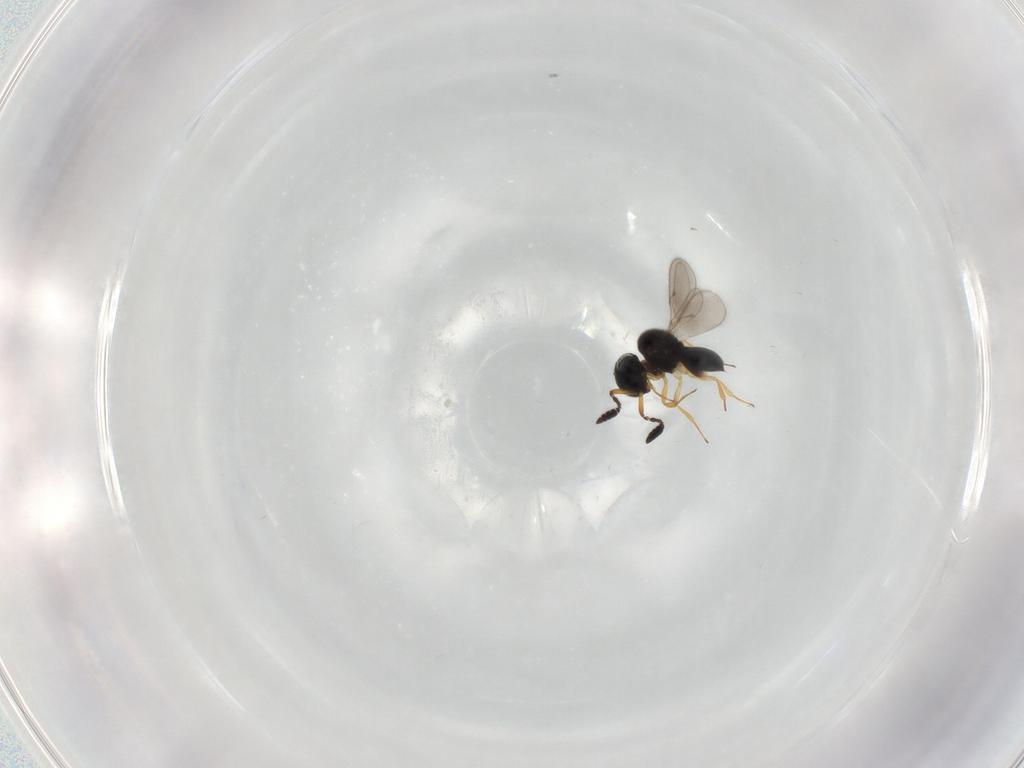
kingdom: Animalia
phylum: Arthropoda
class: Insecta
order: Hymenoptera
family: Scelionidae
